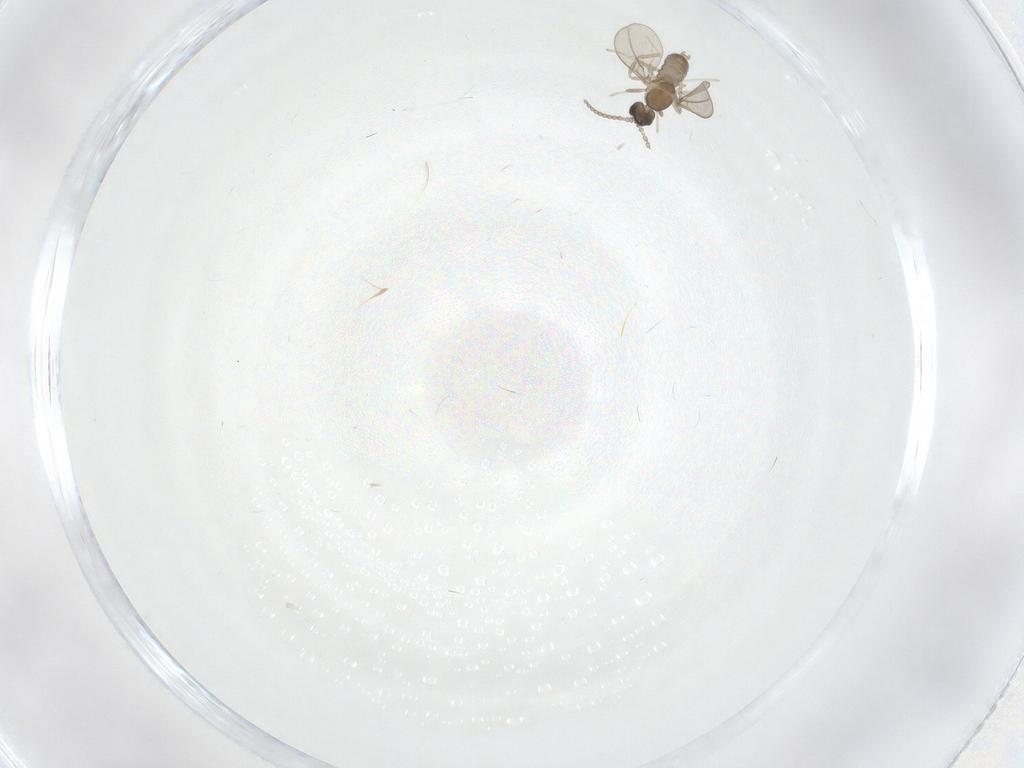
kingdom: Animalia
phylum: Arthropoda
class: Insecta
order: Diptera
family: Sciaridae
